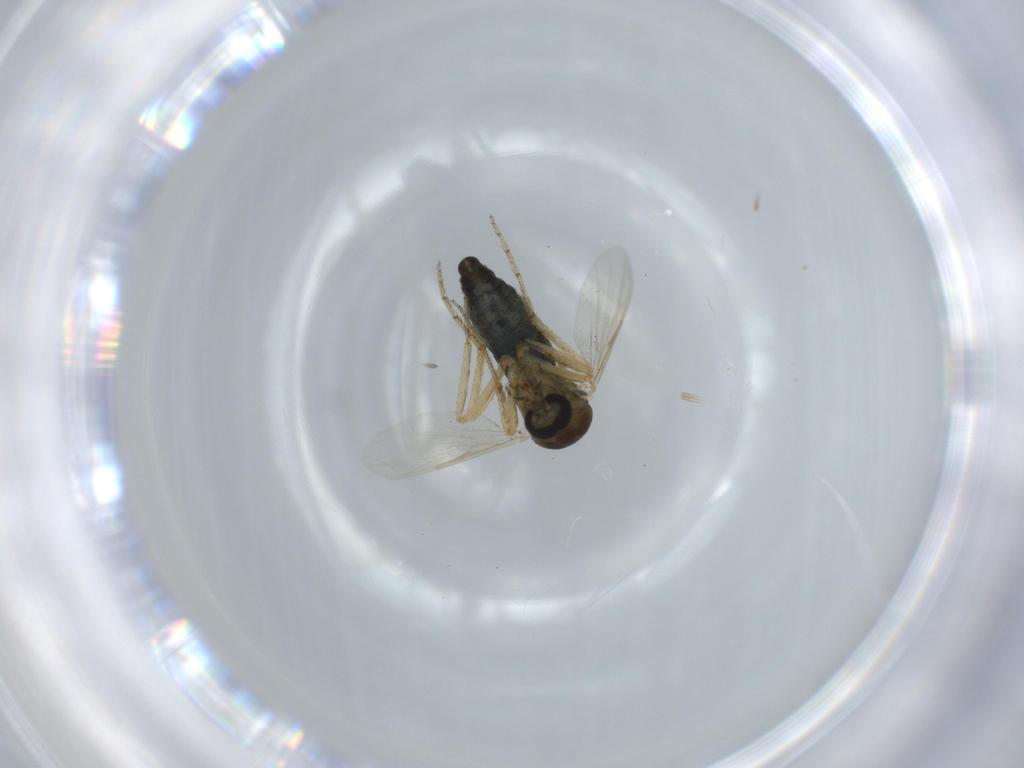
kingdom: Animalia
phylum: Arthropoda
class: Insecta
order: Diptera
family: Ceratopogonidae
